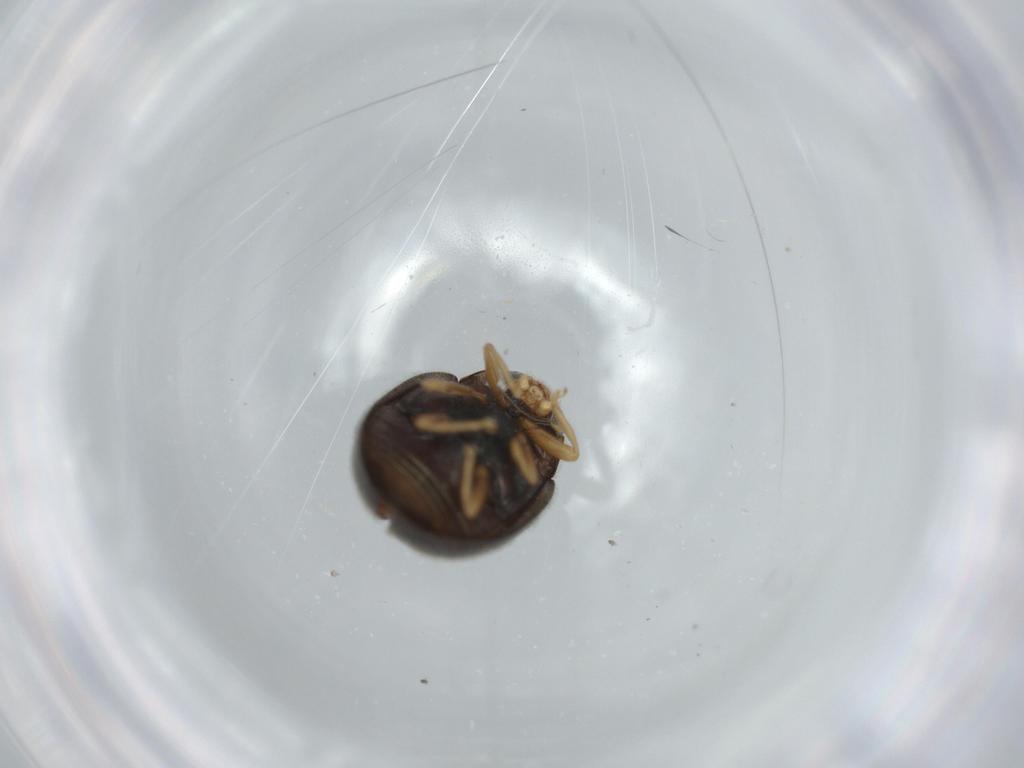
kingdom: Animalia
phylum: Arthropoda
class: Insecta
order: Coleoptera
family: Coccinellidae
